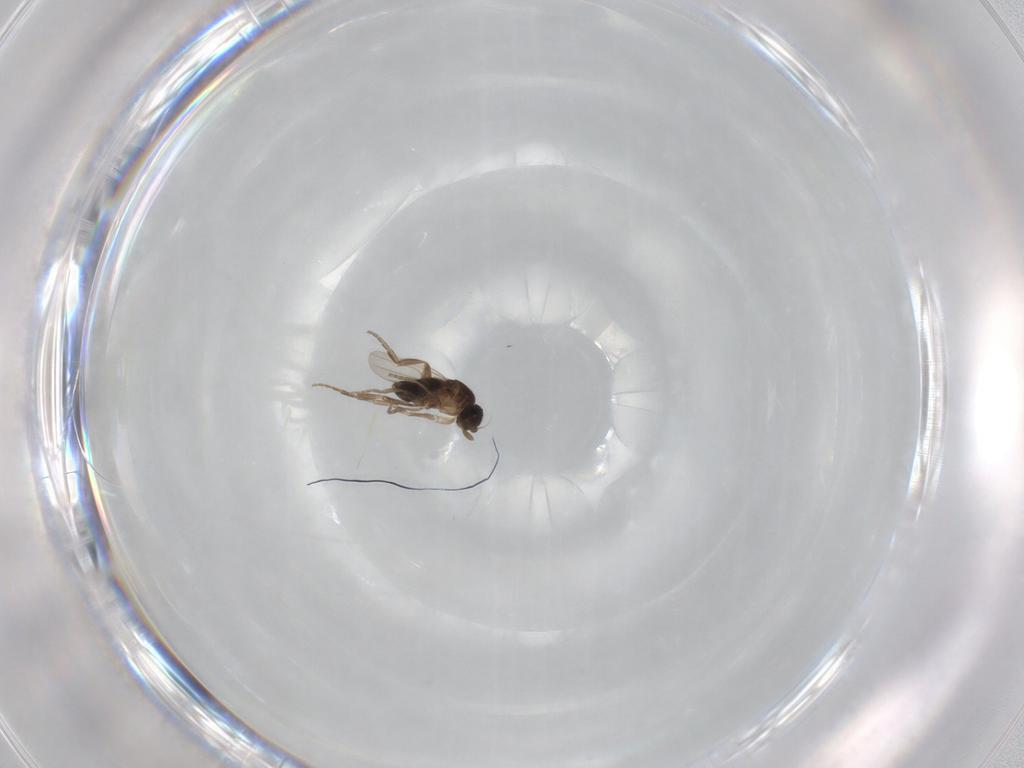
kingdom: Animalia
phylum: Arthropoda
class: Insecta
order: Diptera
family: Phoridae
